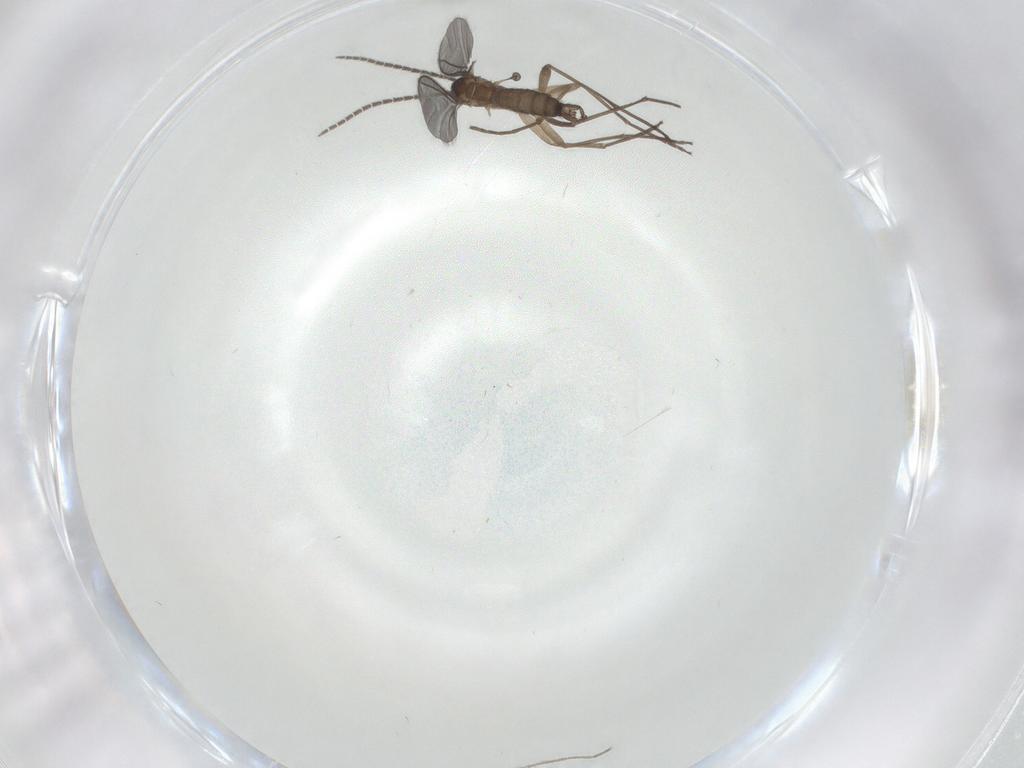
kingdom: Animalia
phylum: Arthropoda
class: Insecta
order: Diptera
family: Sciaridae
